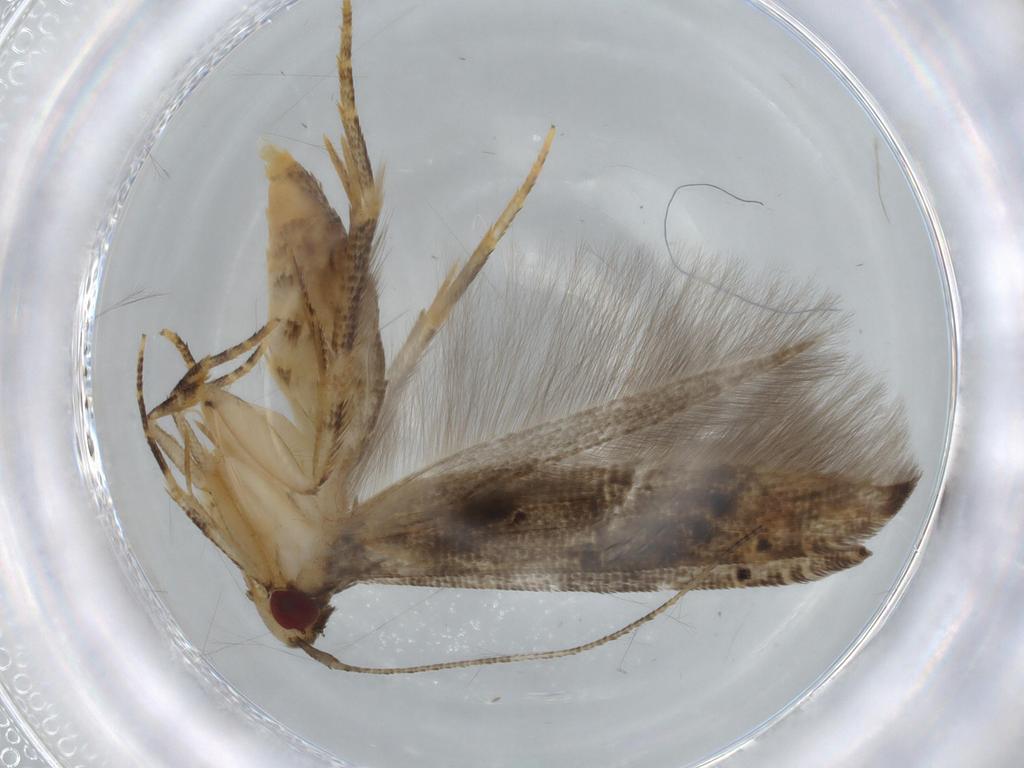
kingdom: Animalia
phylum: Arthropoda
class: Insecta
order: Lepidoptera
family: Cosmopterigidae
